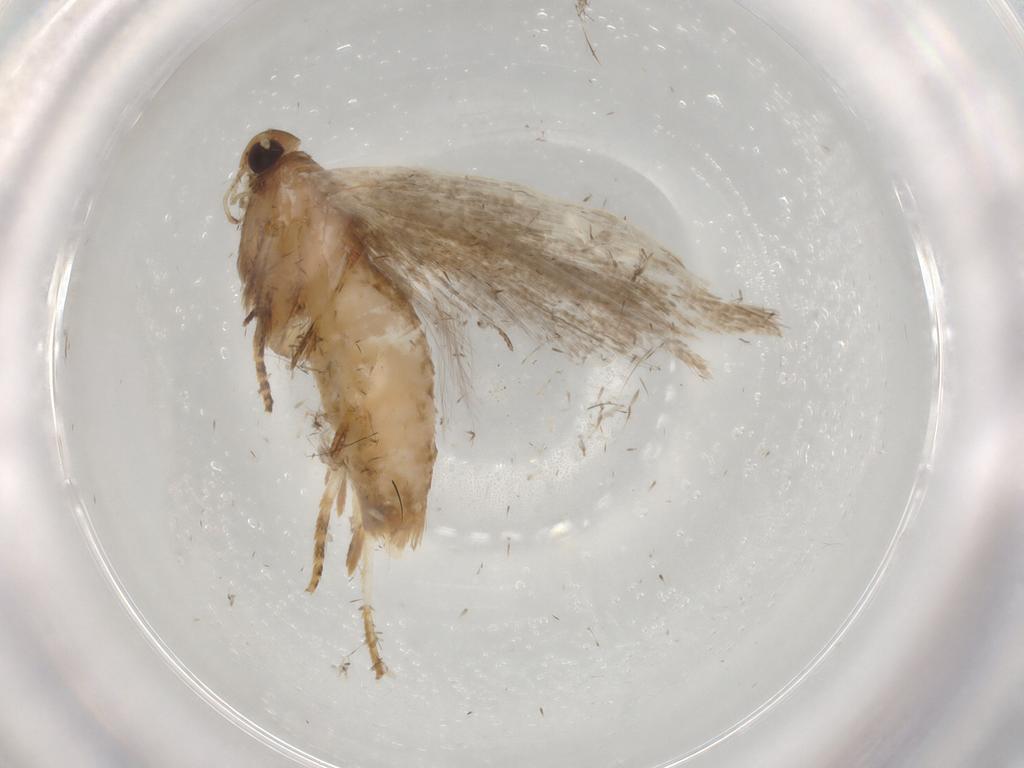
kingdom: Animalia
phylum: Arthropoda
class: Insecta
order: Lepidoptera
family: Gelechiidae
